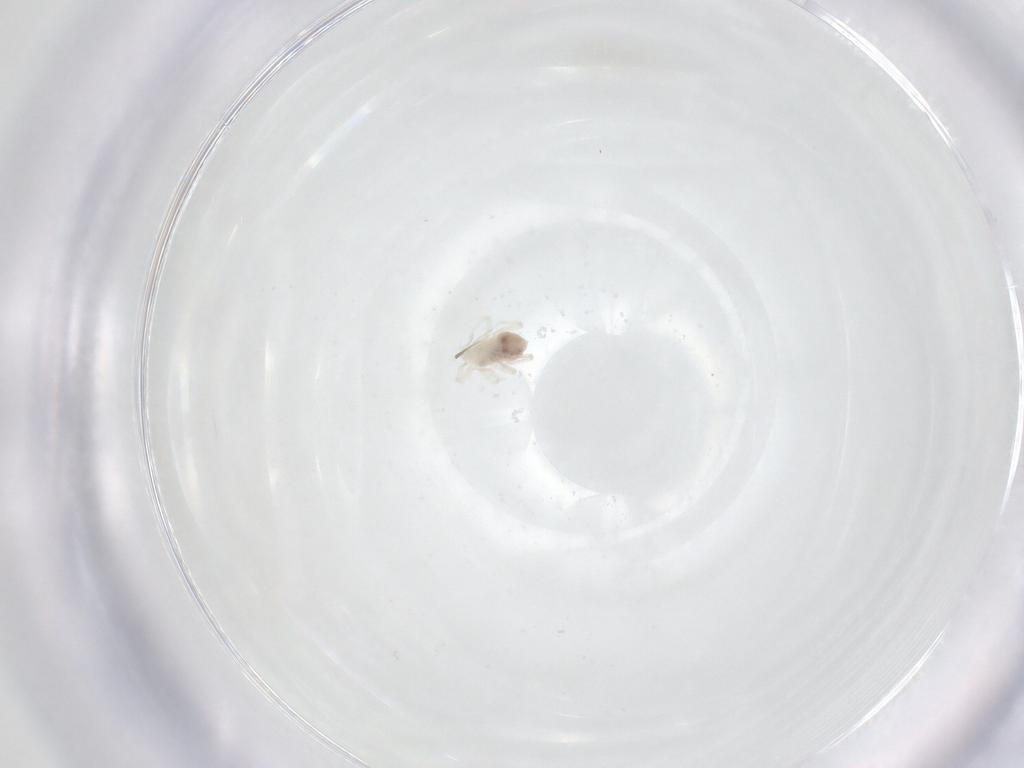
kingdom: Animalia
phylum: Arthropoda
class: Arachnida
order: Trombidiformes
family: Anystidae
